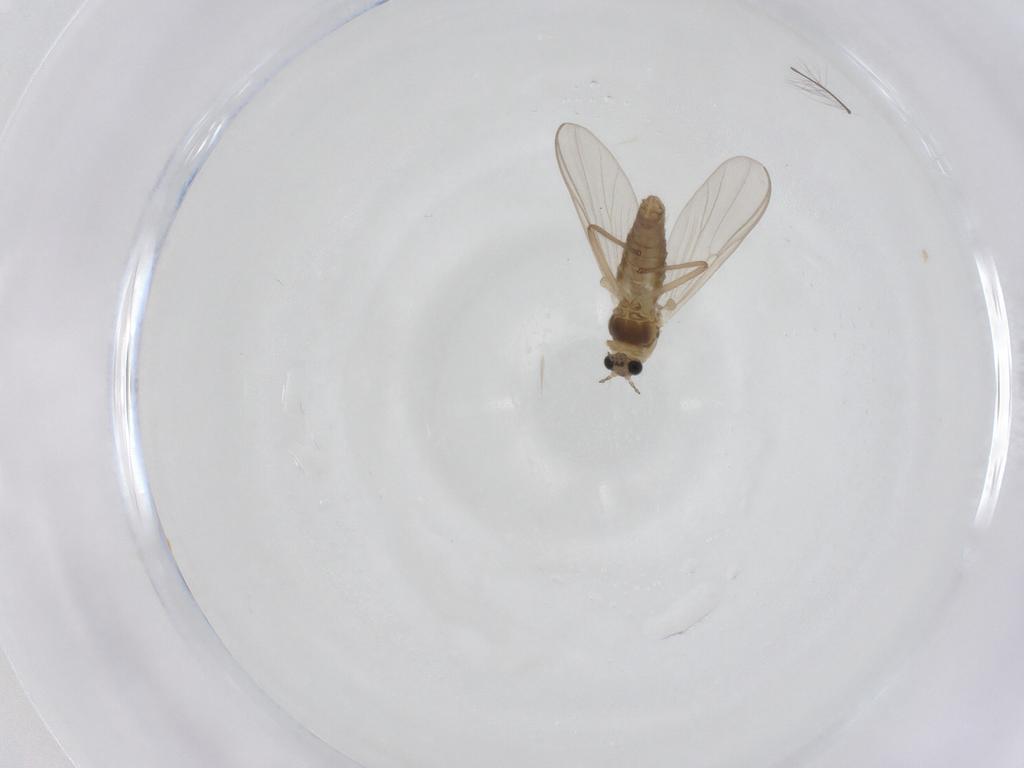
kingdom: Animalia
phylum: Arthropoda
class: Insecta
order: Diptera
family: Chironomidae
